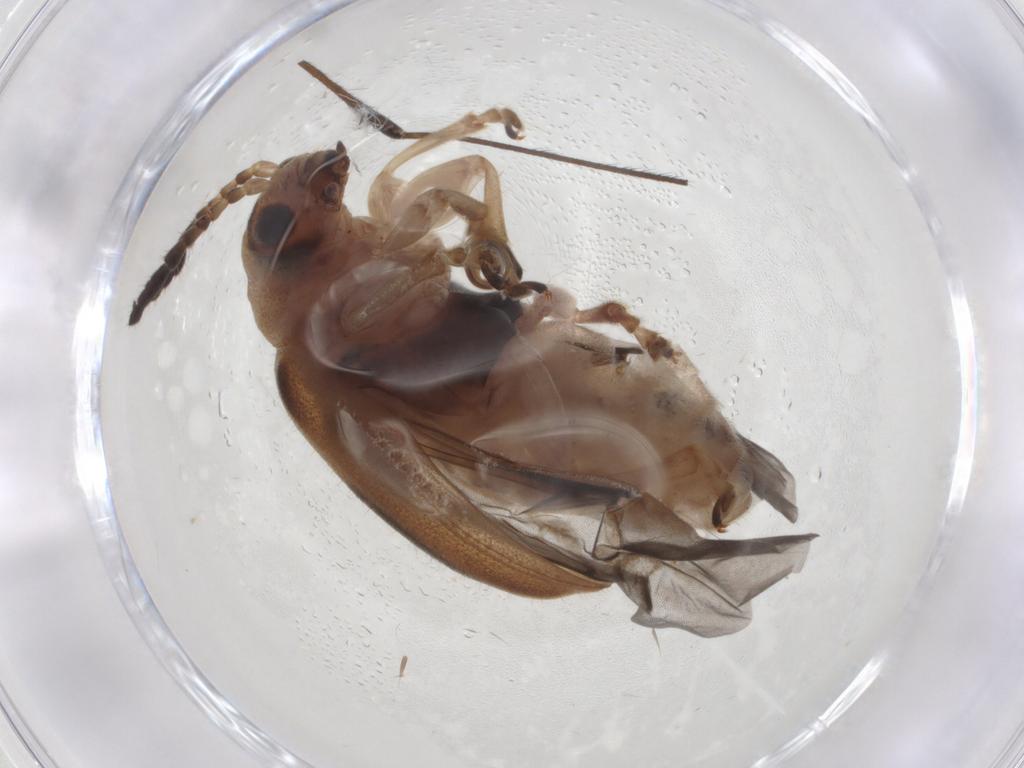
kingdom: Animalia
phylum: Arthropoda
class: Insecta
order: Coleoptera
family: Chrysomelidae
